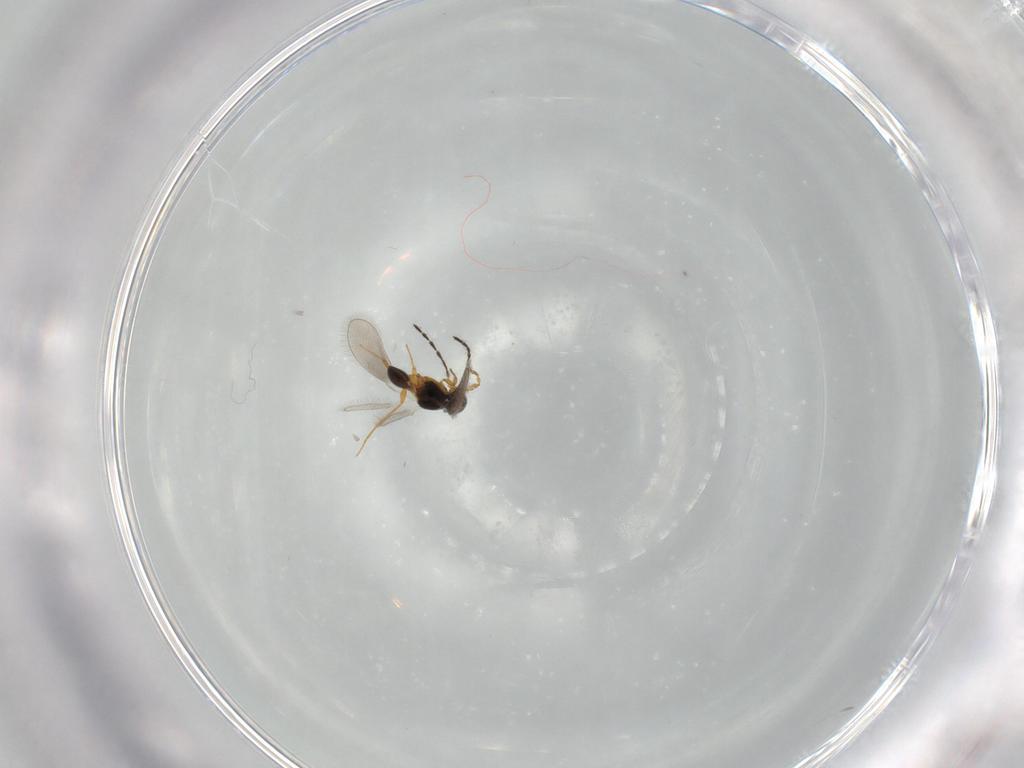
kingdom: Animalia
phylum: Arthropoda
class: Insecta
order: Hymenoptera
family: Platygastridae
